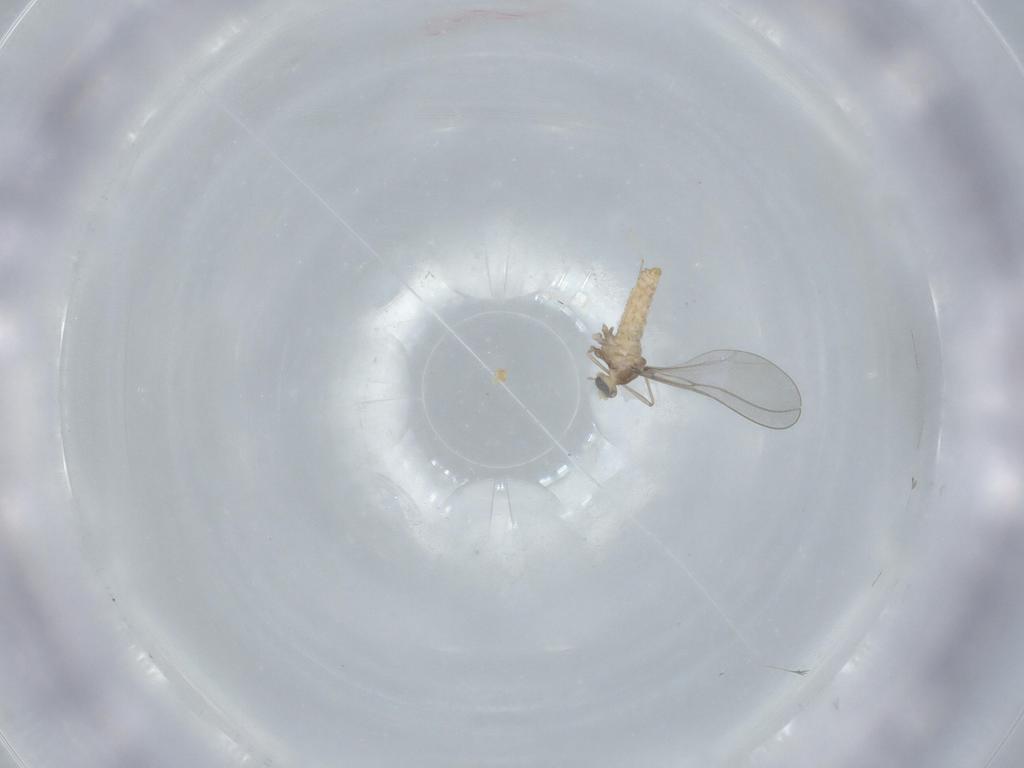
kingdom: Animalia
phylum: Arthropoda
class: Insecta
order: Diptera
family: Cecidomyiidae
